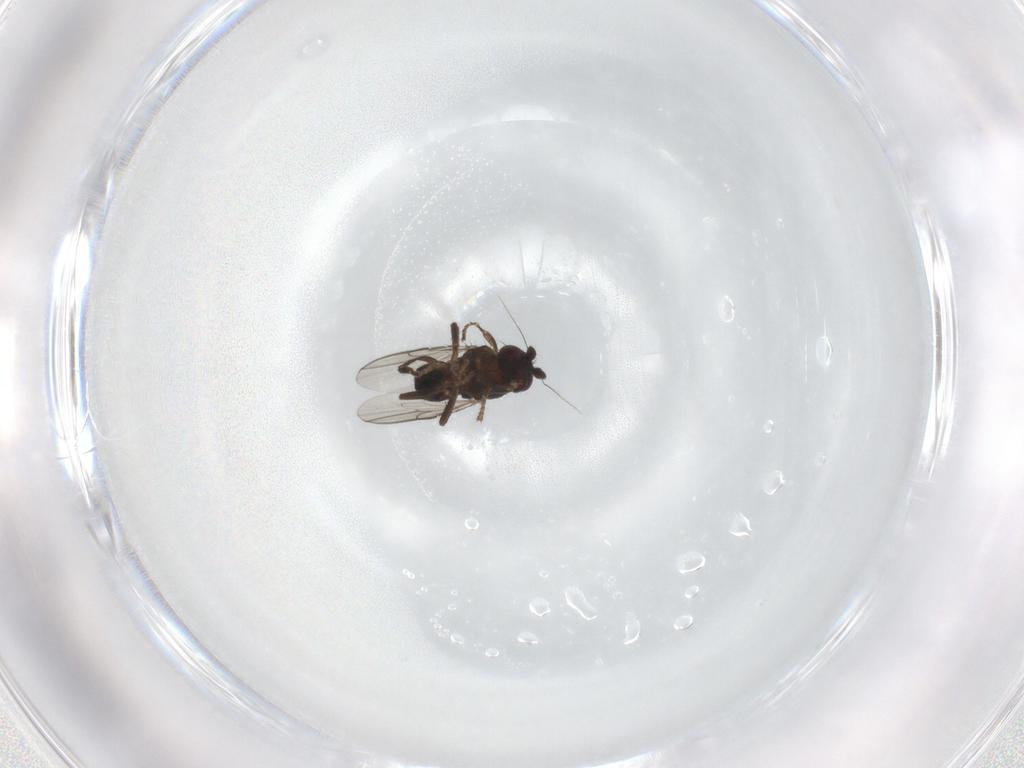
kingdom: Animalia
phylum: Arthropoda
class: Insecta
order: Diptera
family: Sphaeroceridae
